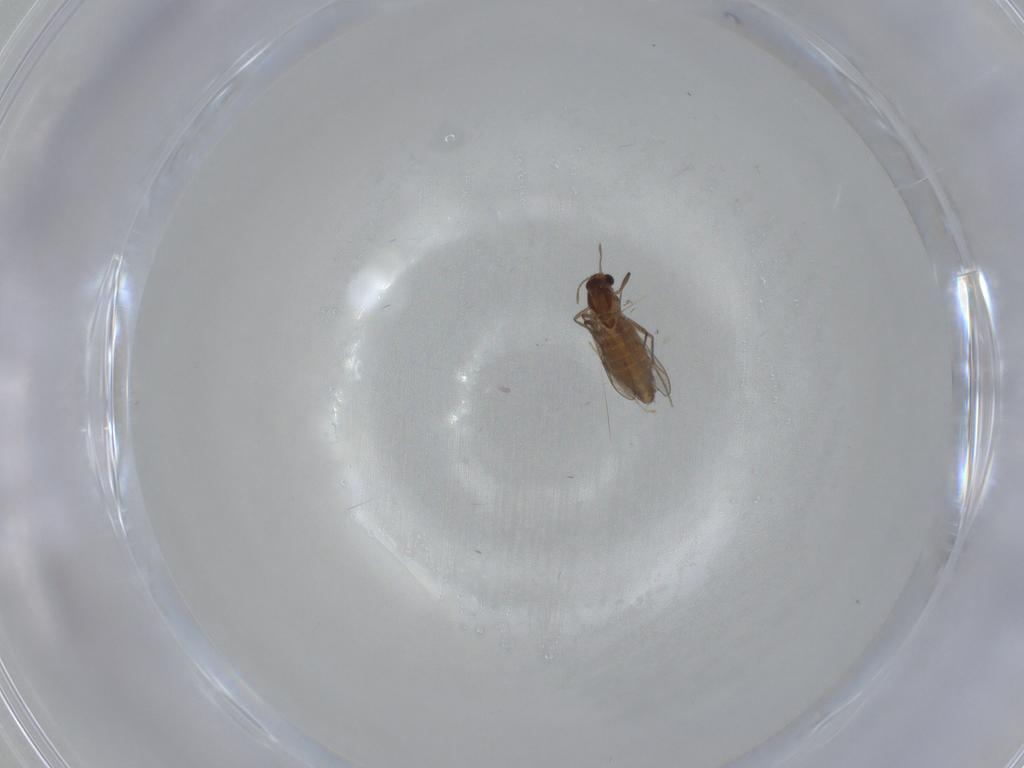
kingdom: Animalia
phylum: Arthropoda
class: Insecta
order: Diptera
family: Chironomidae
